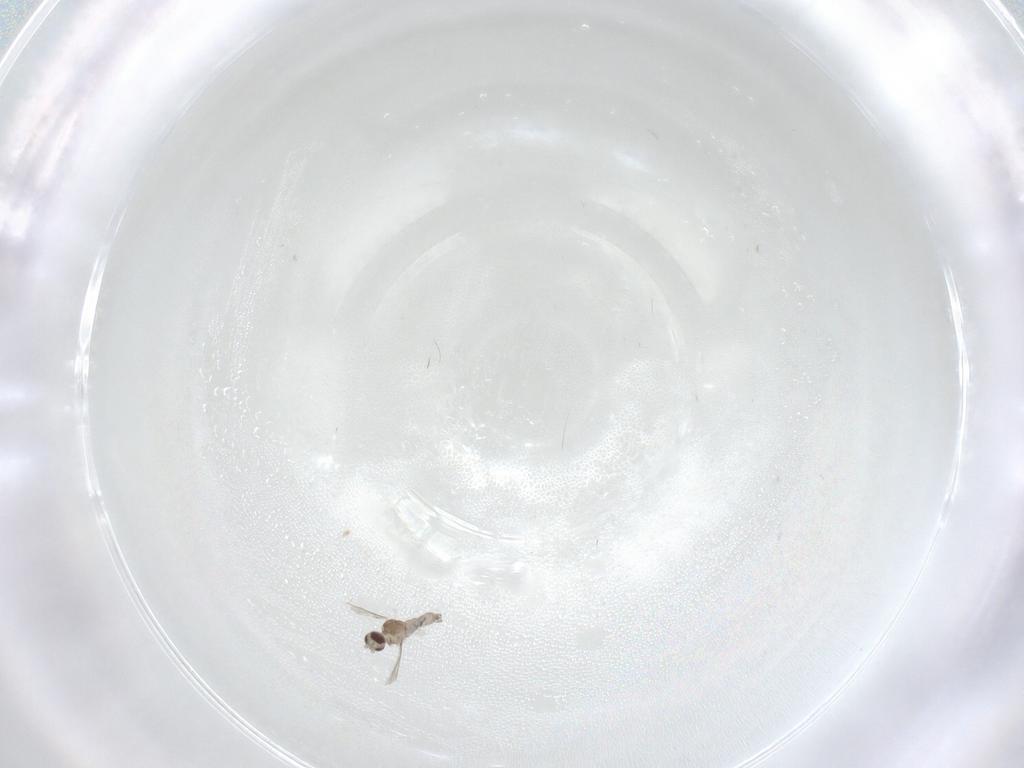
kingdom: Animalia
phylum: Arthropoda
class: Insecta
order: Diptera
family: Cecidomyiidae
